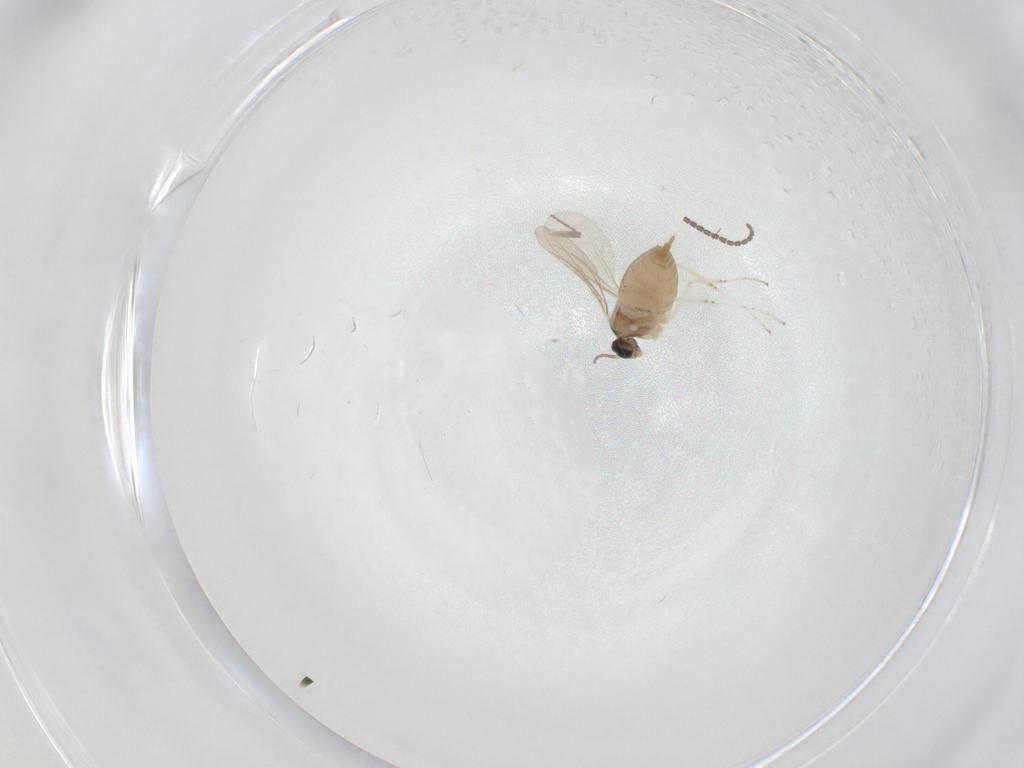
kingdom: Animalia
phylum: Arthropoda
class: Insecta
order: Diptera
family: Cecidomyiidae
